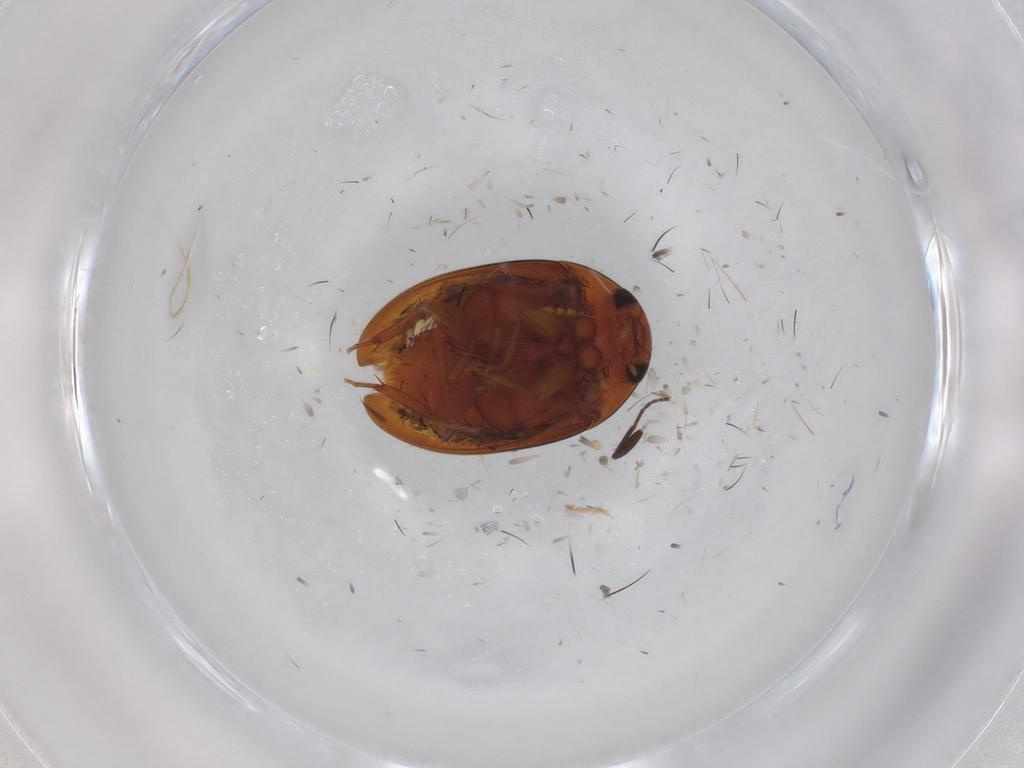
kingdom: Animalia
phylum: Arthropoda
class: Insecta
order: Coleoptera
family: Phalacridae
